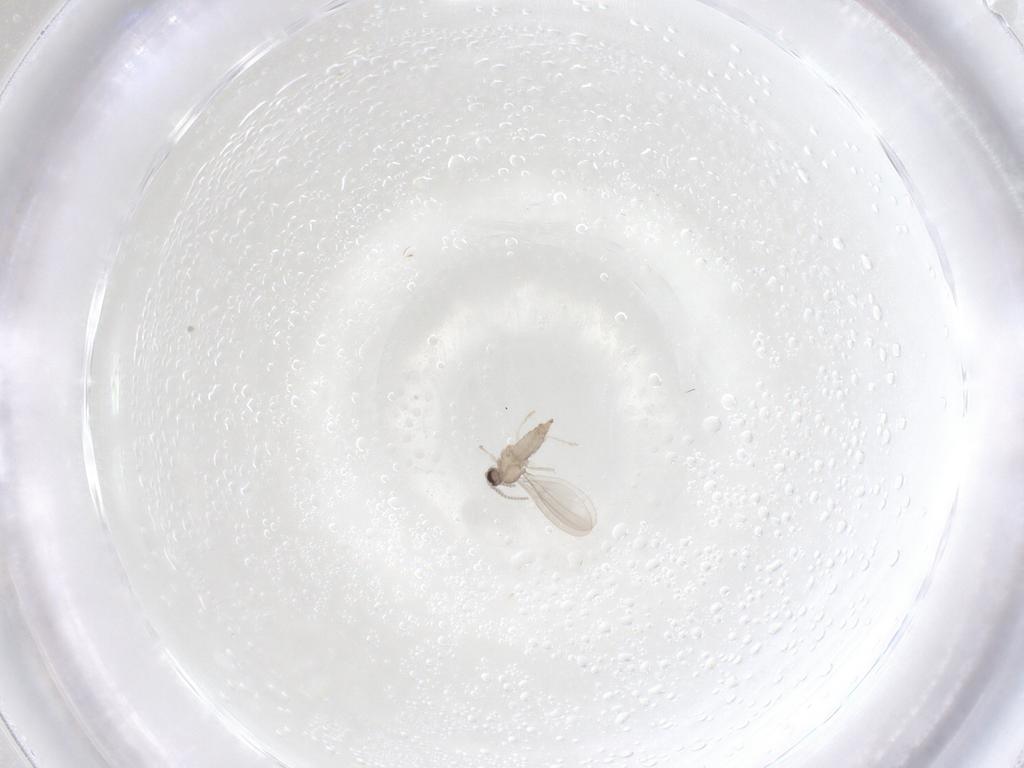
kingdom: Animalia
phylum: Arthropoda
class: Insecta
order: Diptera
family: Cecidomyiidae
